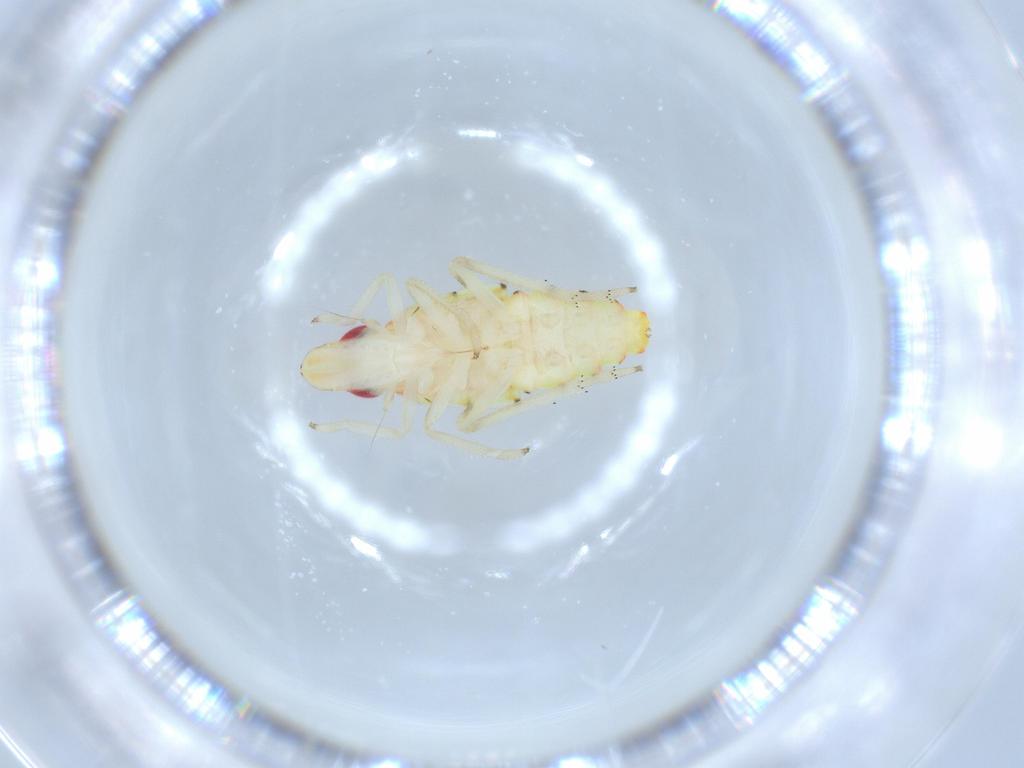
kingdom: Animalia
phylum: Arthropoda
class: Insecta
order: Hemiptera
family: Tropiduchidae
